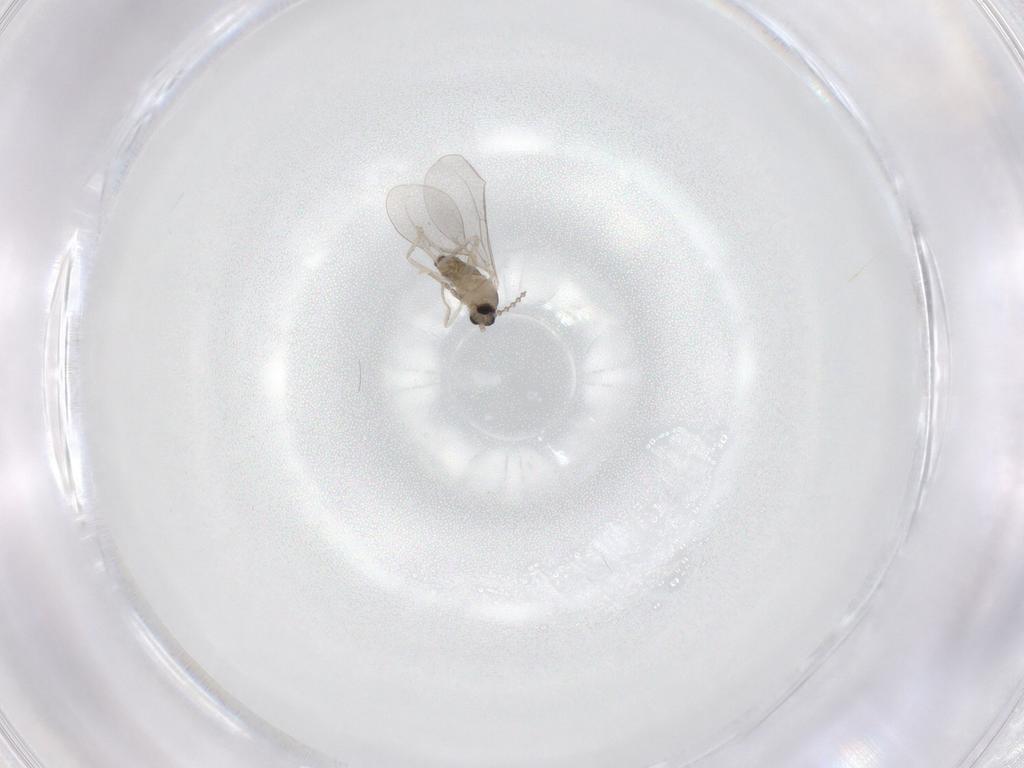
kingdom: Animalia
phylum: Arthropoda
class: Insecta
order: Diptera
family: Cecidomyiidae
